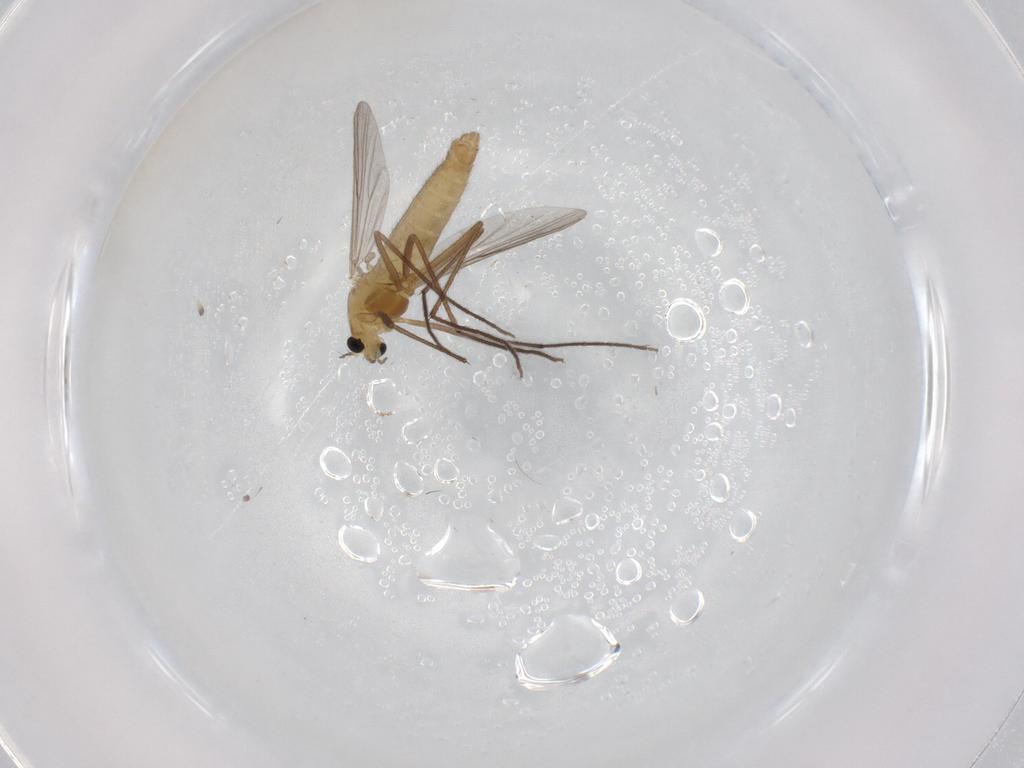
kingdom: Animalia
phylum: Arthropoda
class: Insecta
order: Diptera
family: Chironomidae
